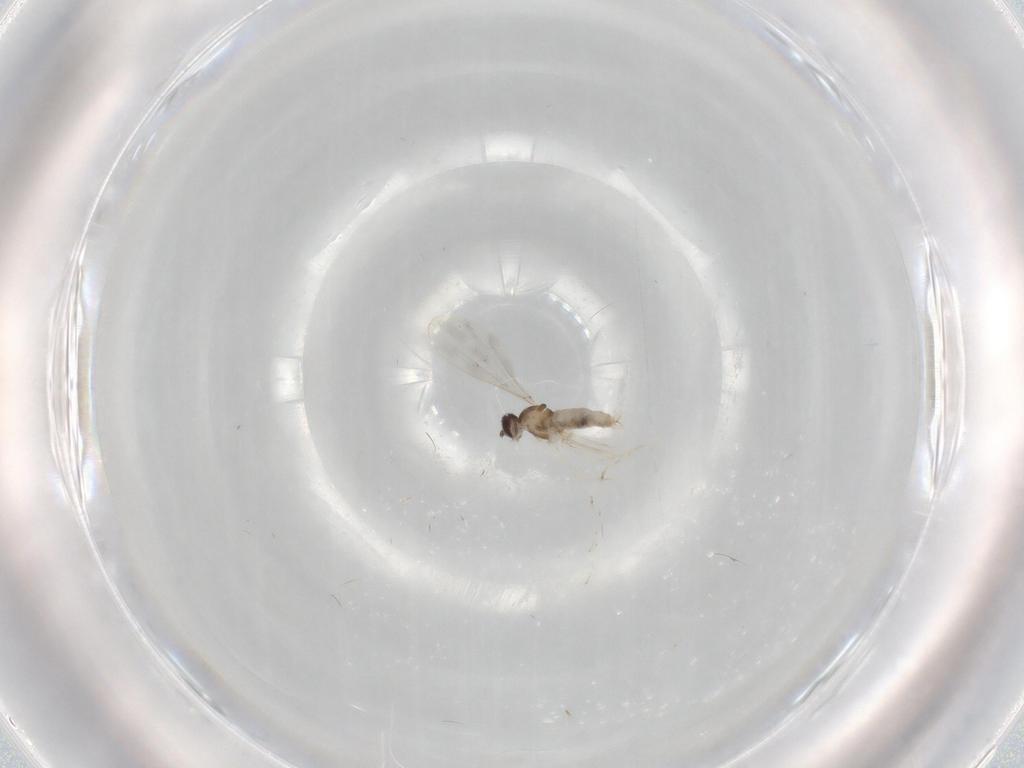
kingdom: Animalia
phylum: Arthropoda
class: Insecta
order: Diptera
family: Cecidomyiidae
